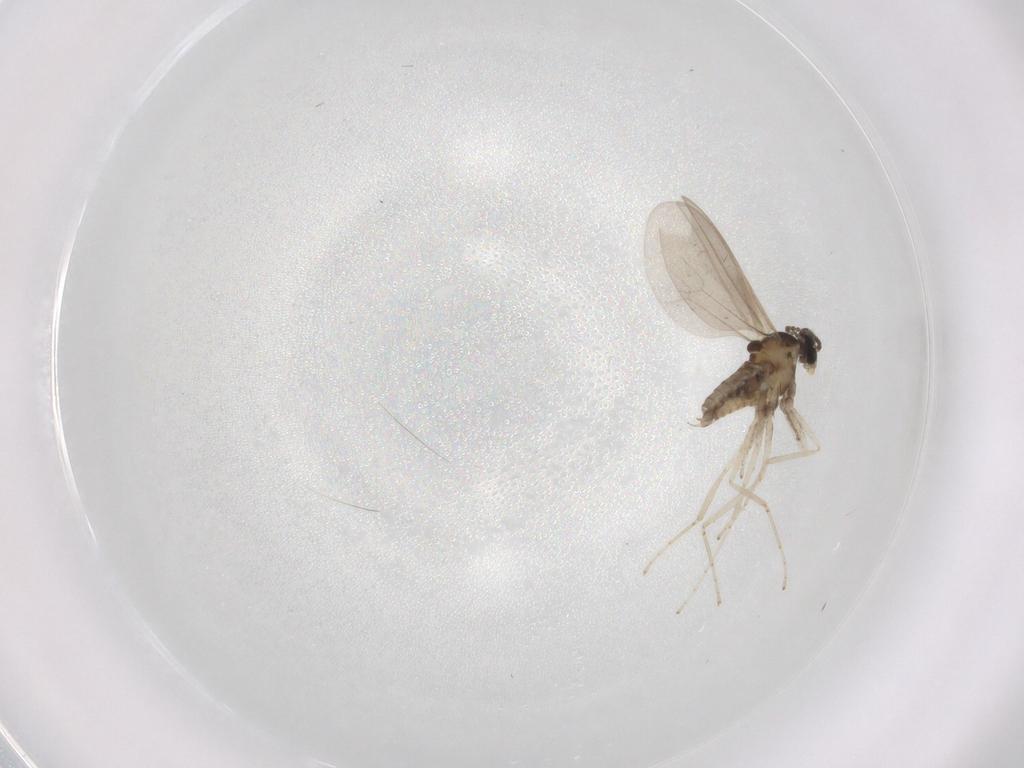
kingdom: Animalia
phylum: Arthropoda
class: Insecta
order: Diptera
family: Cecidomyiidae
